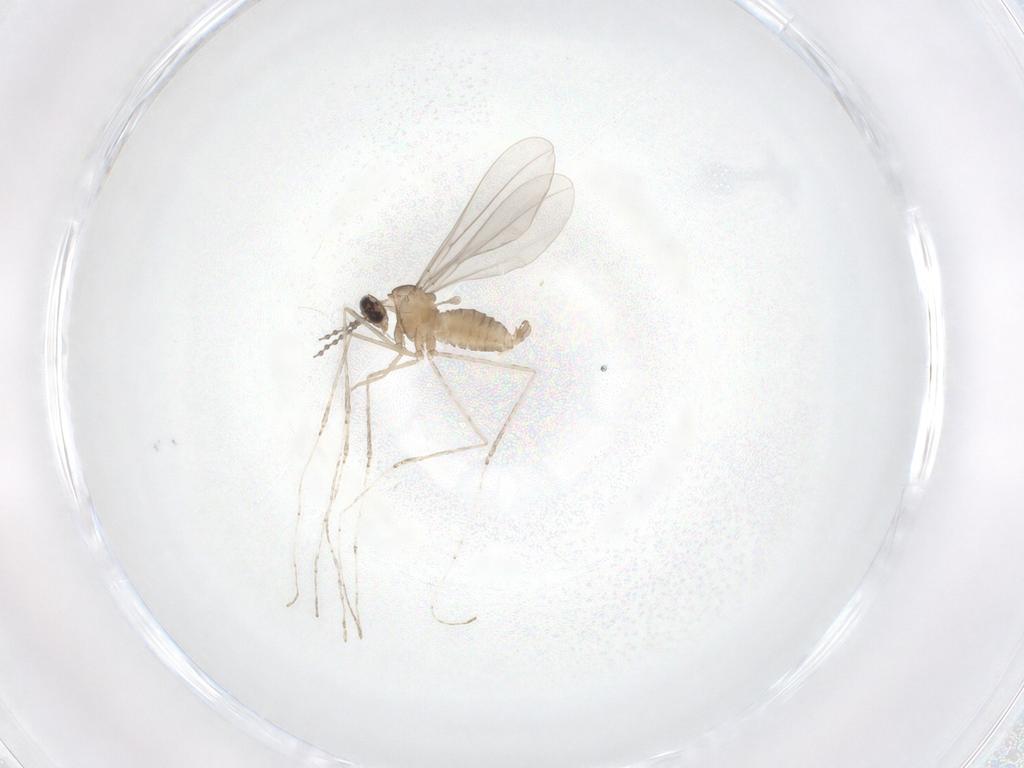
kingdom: Animalia
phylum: Arthropoda
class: Insecta
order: Diptera
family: Cecidomyiidae
